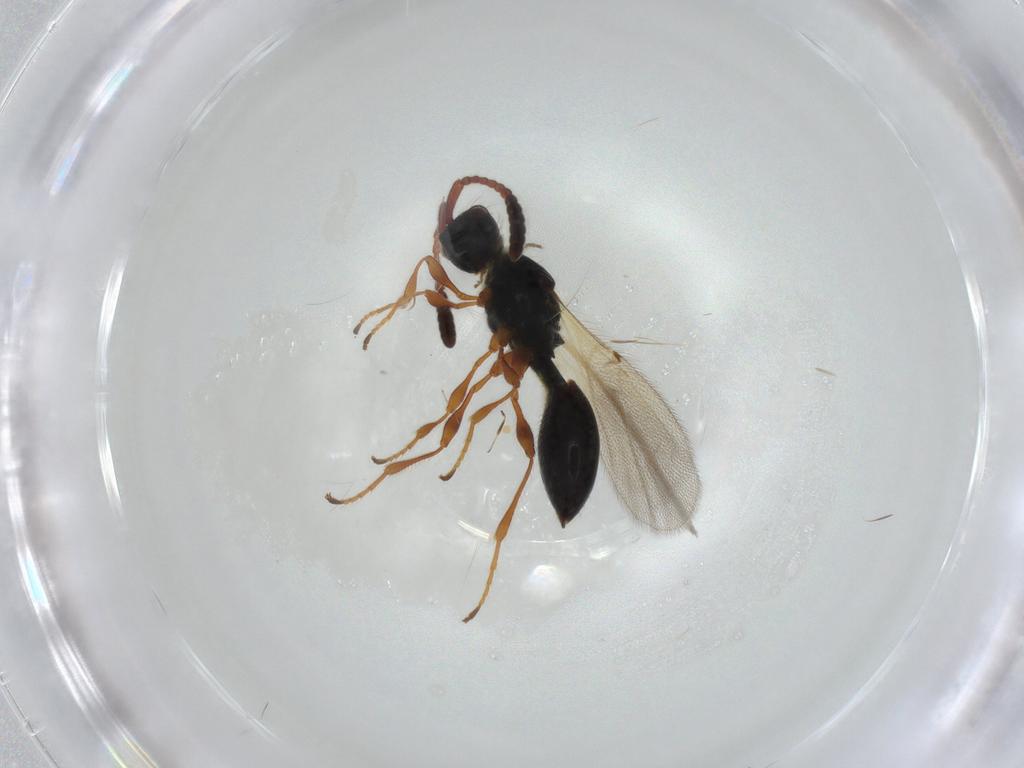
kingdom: Animalia
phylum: Arthropoda
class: Insecta
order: Hymenoptera
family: Diapriidae
